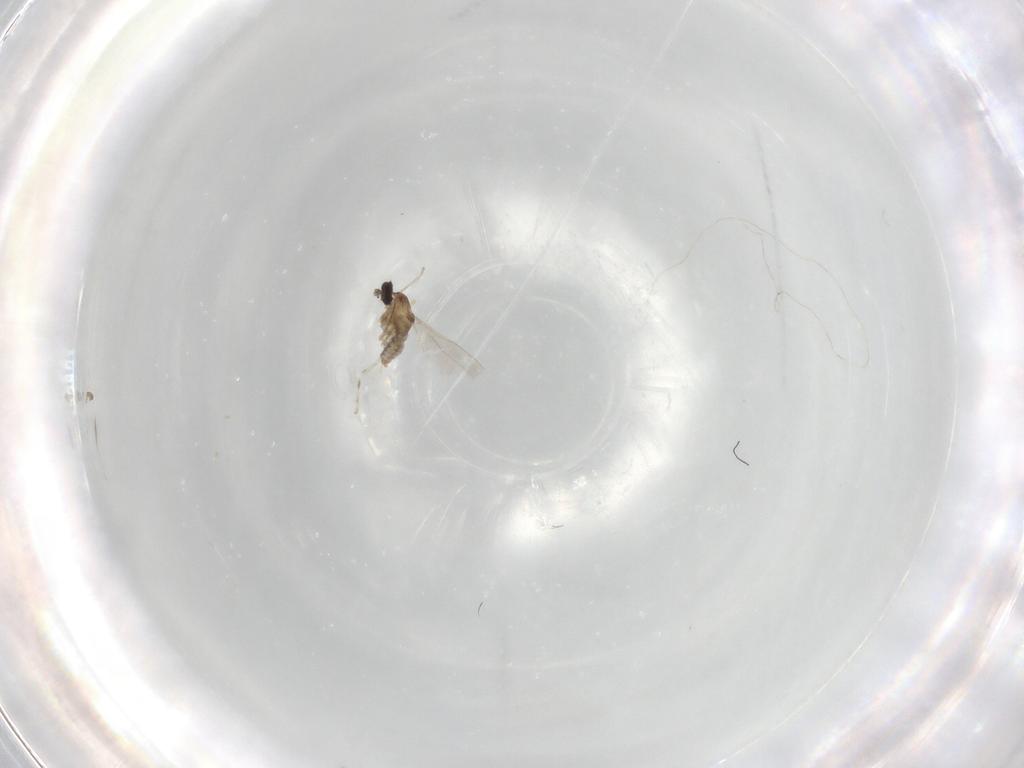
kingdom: Animalia
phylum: Arthropoda
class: Insecta
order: Diptera
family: Cecidomyiidae
